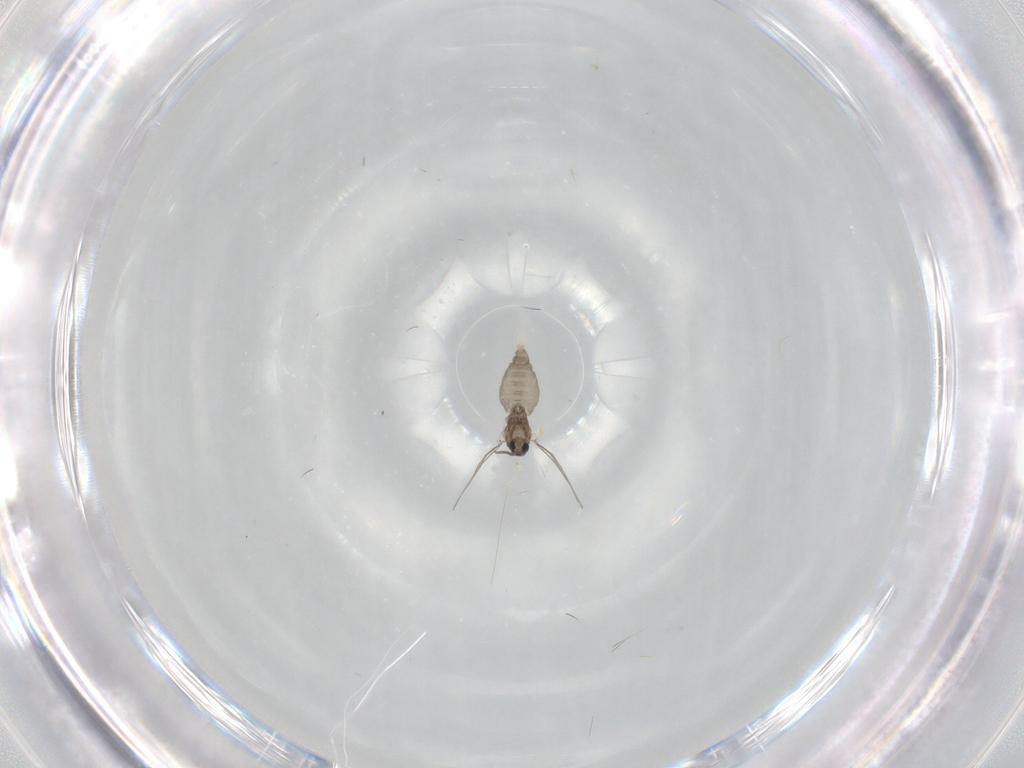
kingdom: Animalia
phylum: Arthropoda
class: Insecta
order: Diptera
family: Cecidomyiidae
